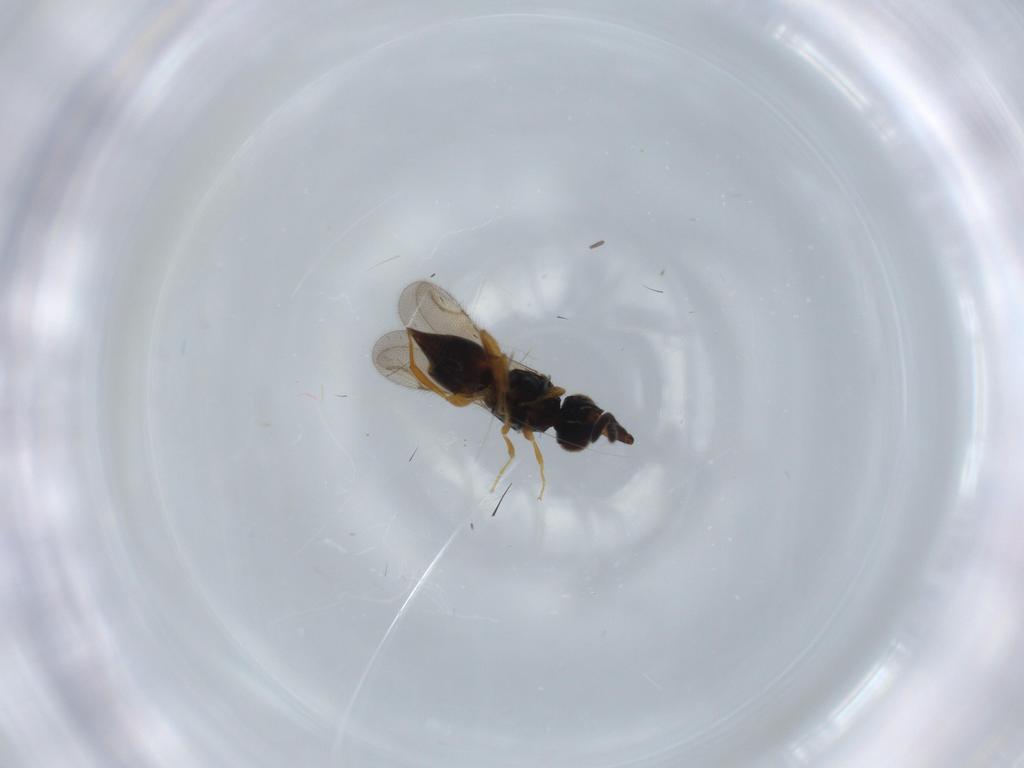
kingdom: Animalia
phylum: Arthropoda
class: Insecta
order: Hymenoptera
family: Ceraphronidae
